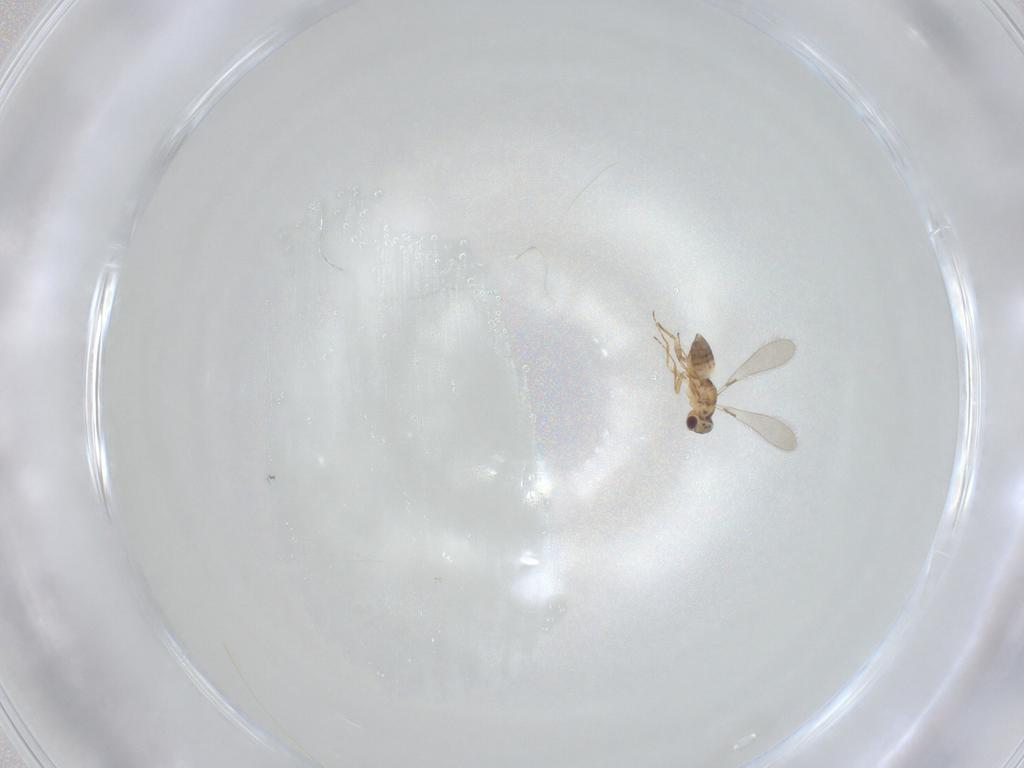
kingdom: Animalia
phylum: Arthropoda
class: Insecta
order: Hymenoptera
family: Mymaridae
